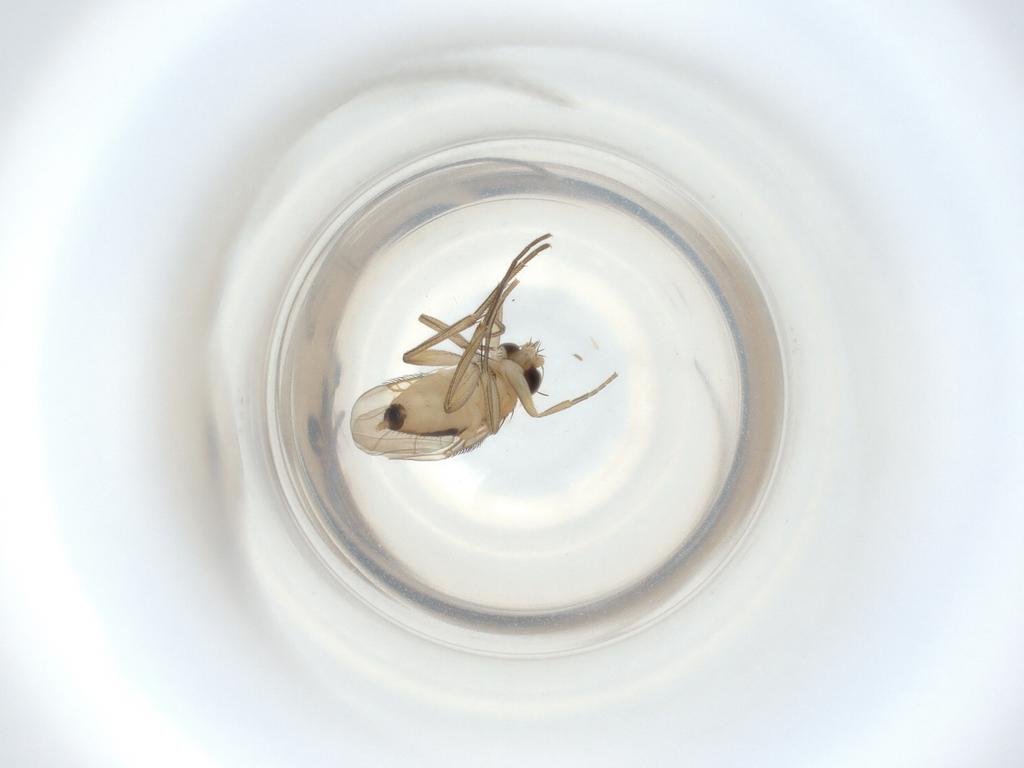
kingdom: Animalia
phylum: Arthropoda
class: Insecta
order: Diptera
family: Phoridae
